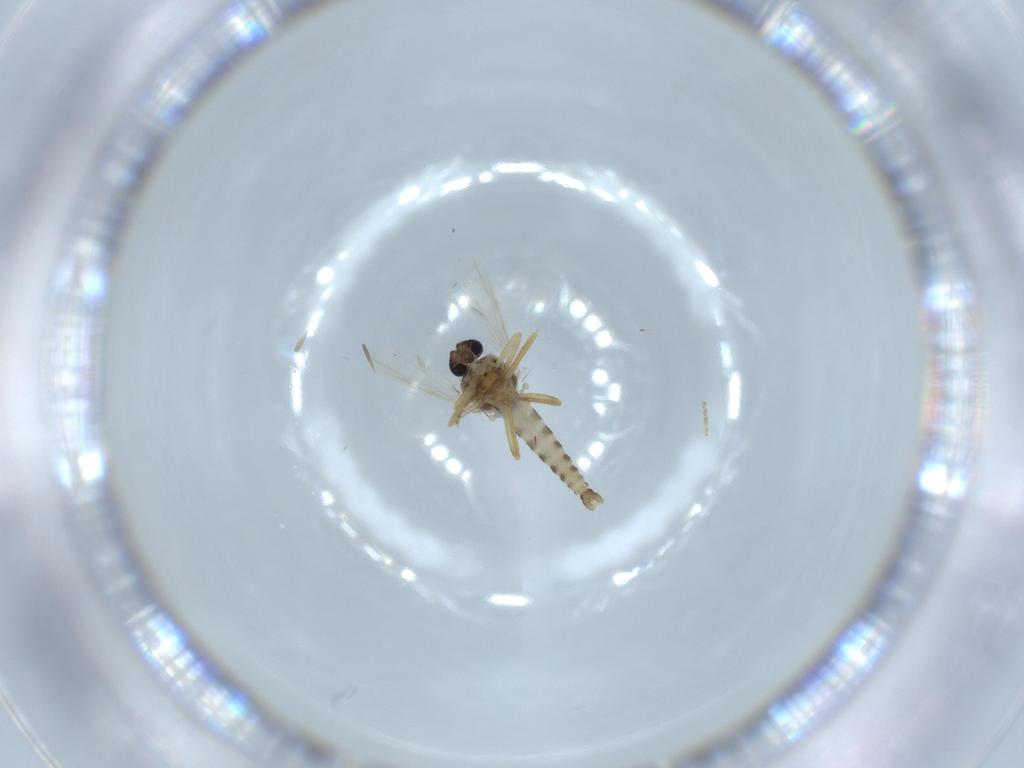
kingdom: Animalia
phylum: Arthropoda
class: Insecta
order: Diptera
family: Ceratopogonidae
